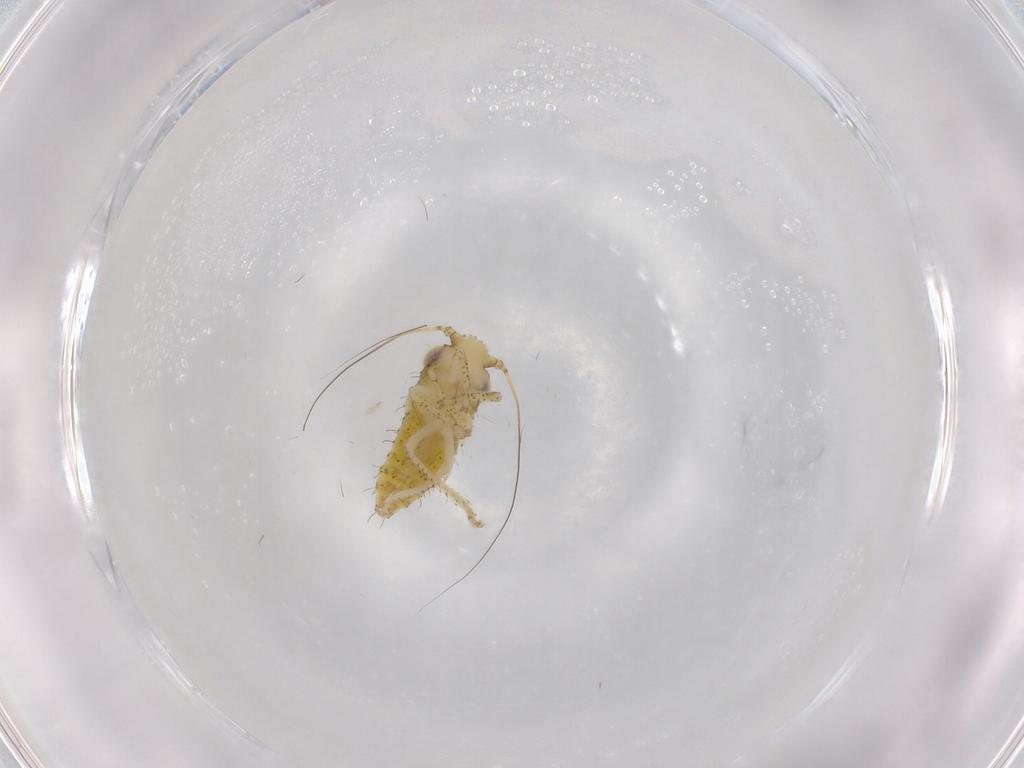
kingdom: Animalia
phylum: Arthropoda
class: Insecta
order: Hemiptera
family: Cicadellidae
